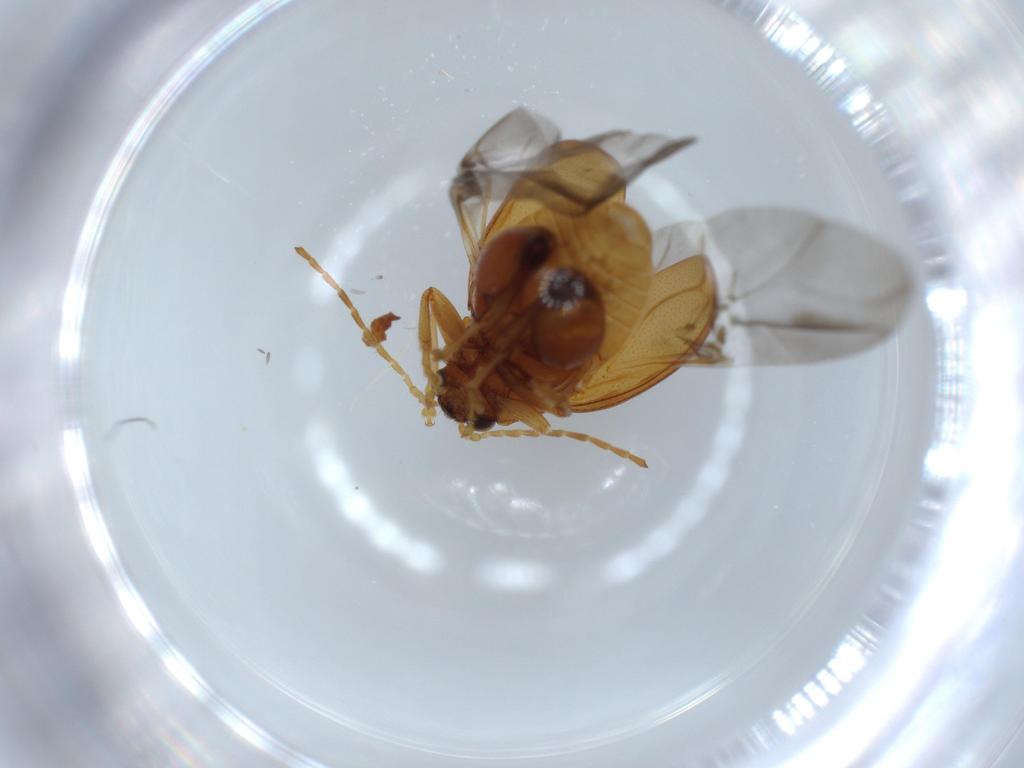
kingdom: Animalia
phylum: Arthropoda
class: Insecta
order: Coleoptera
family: Chrysomelidae
